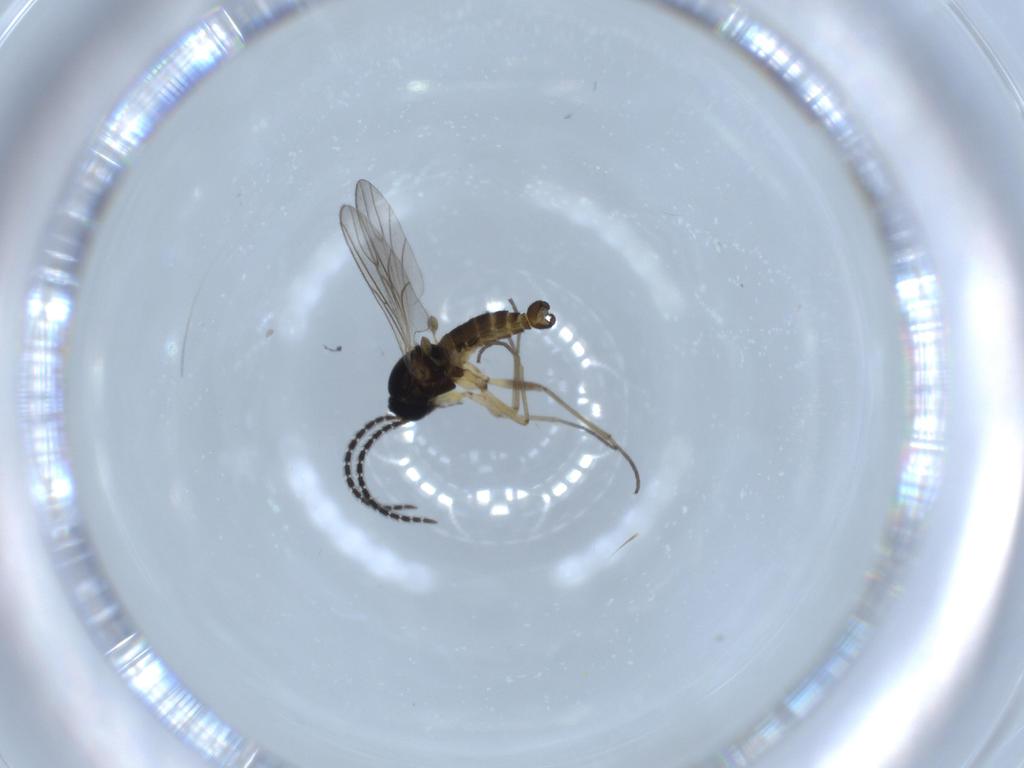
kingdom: Animalia
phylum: Arthropoda
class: Insecta
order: Diptera
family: Sciaridae
